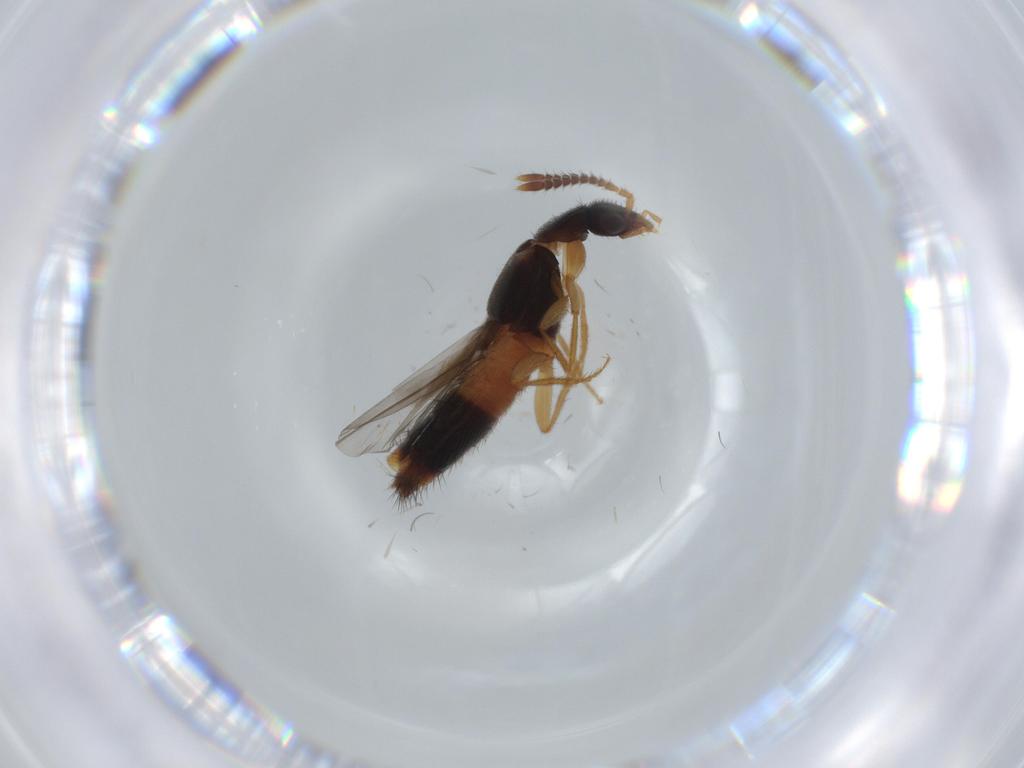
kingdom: Animalia
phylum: Arthropoda
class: Insecta
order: Coleoptera
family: Staphylinidae
